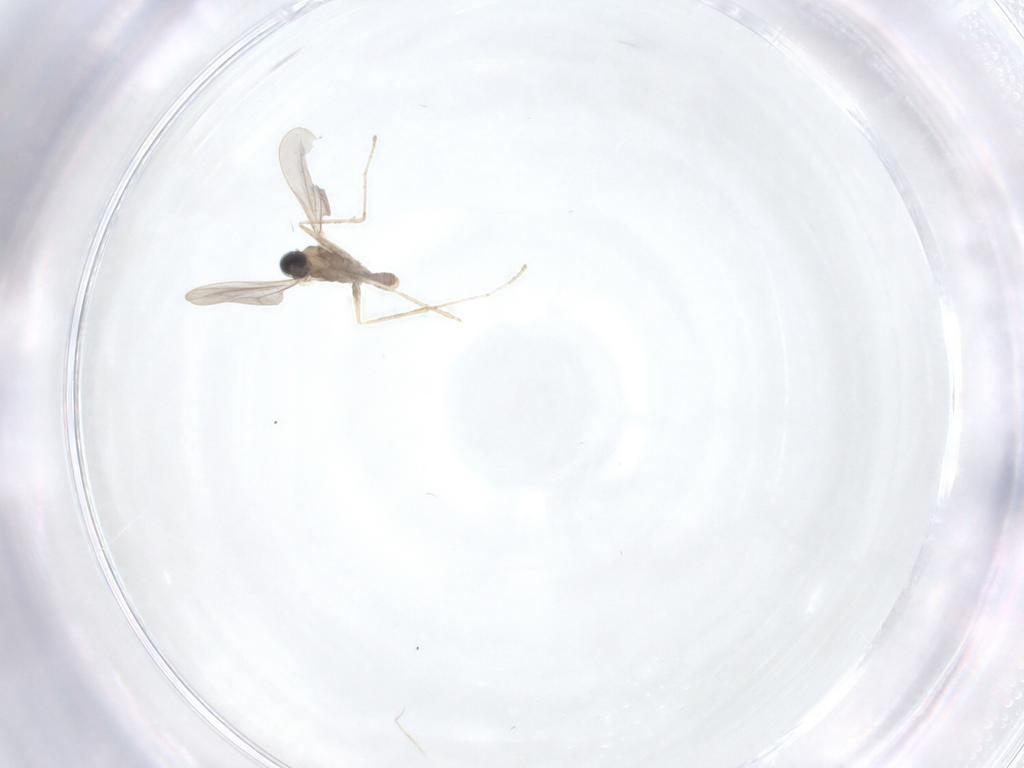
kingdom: Animalia
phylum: Arthropoda
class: Insecta
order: Diptera
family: Cecidomyiidae
